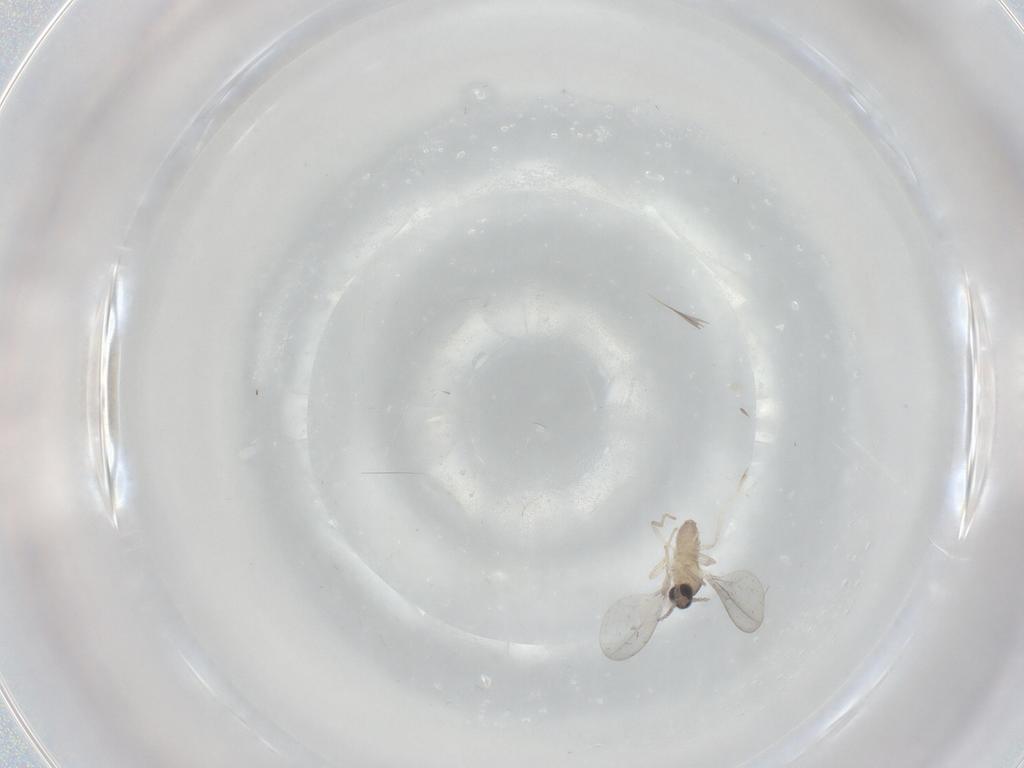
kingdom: Animalia
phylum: Arthropoda
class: Insecta
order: Diptera
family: Cecidomyiidae
